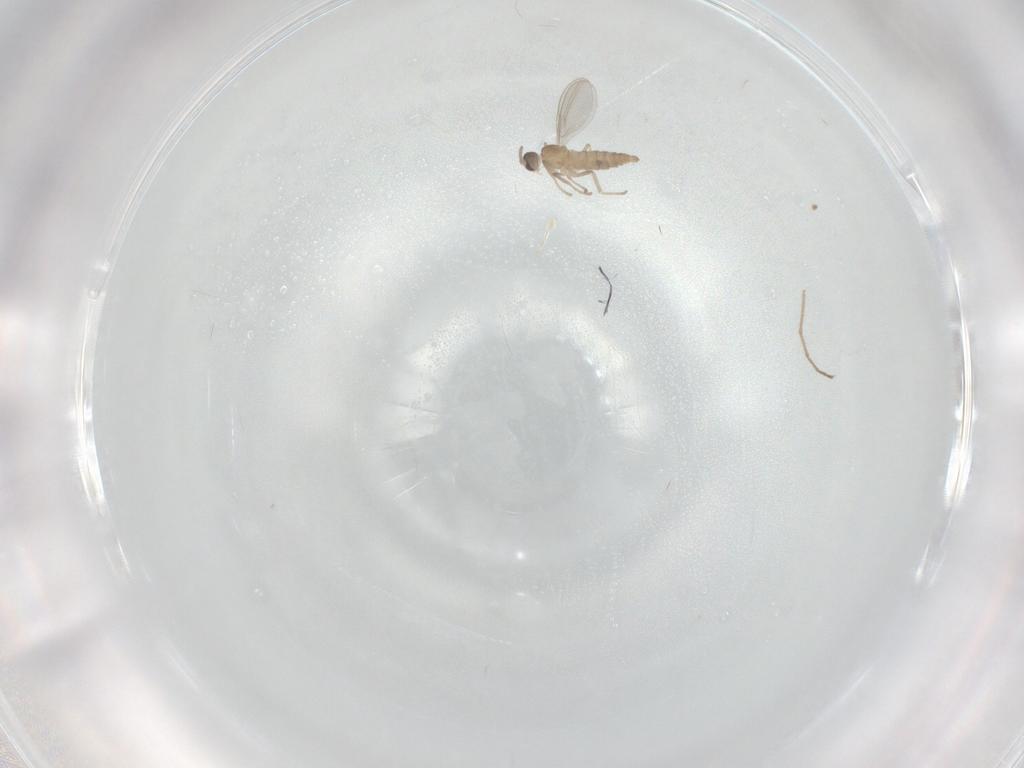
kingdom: Animalia
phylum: Arthropoda
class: Insecta
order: Diptera
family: Cecidomyiidae
